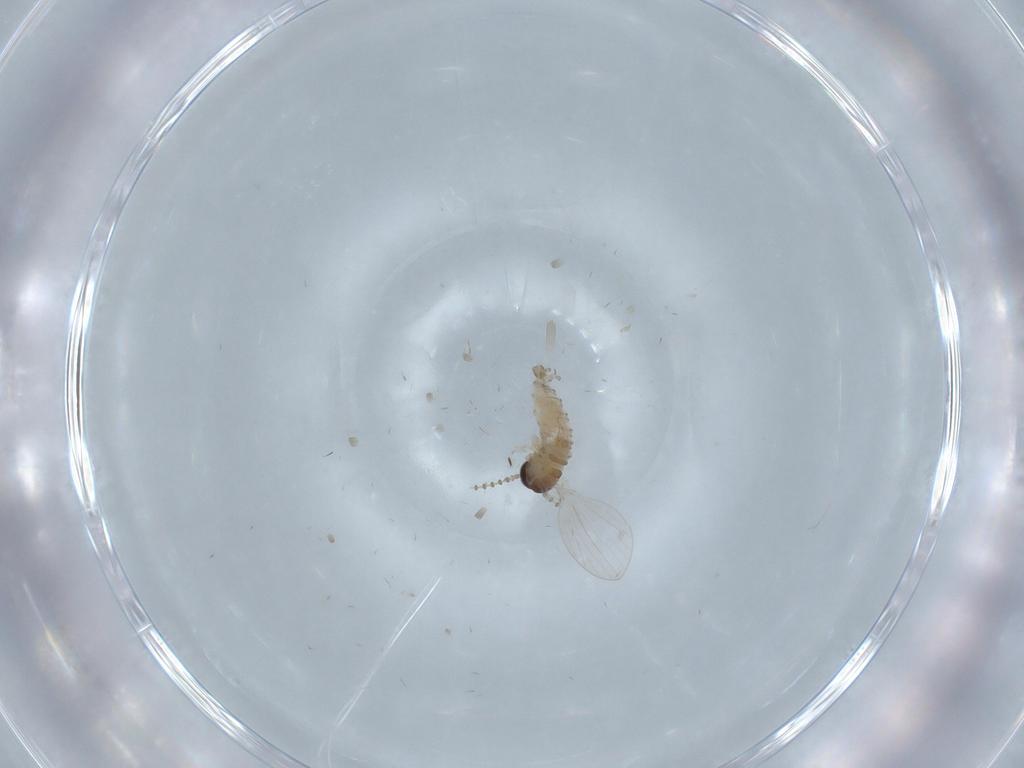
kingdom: Animalia
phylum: Arthropoda
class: Insecta
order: Diptera
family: Psychodidae
